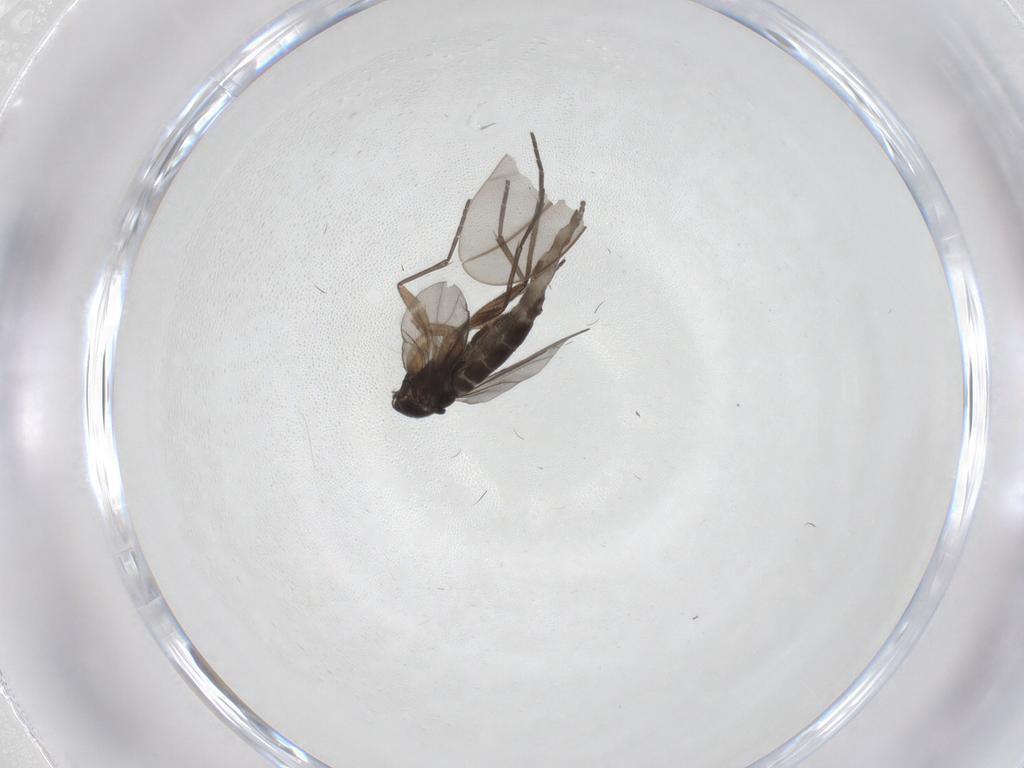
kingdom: Animalia
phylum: Arthropoda
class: Insecta
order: Diptera
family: Sciaridae
